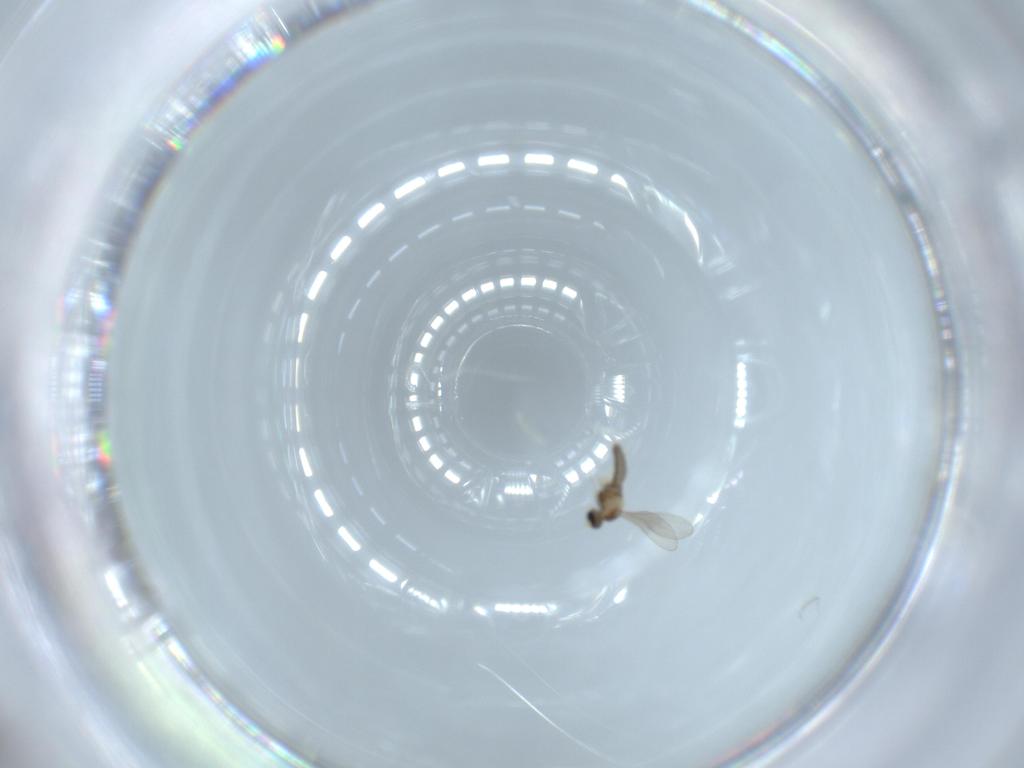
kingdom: Animalia
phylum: Arthropoda
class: Insecta
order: Diptera
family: Cecidomyiidae
